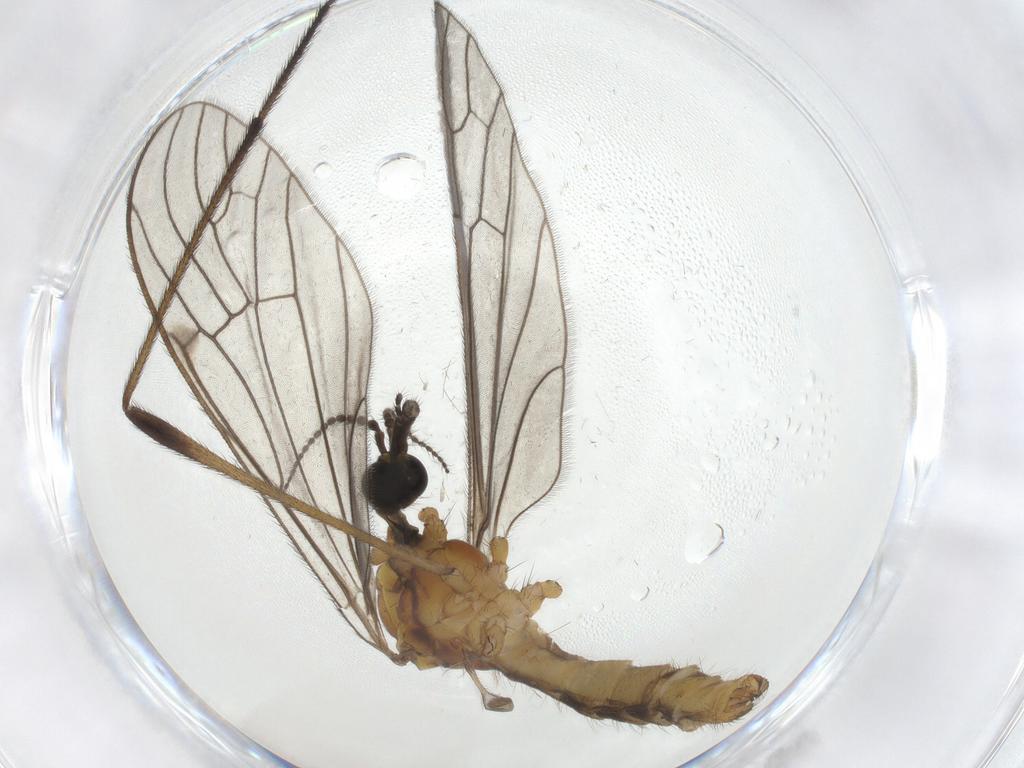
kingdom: Animalia
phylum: Arthropoda
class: Insecta
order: Diptera
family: Limoniidae
